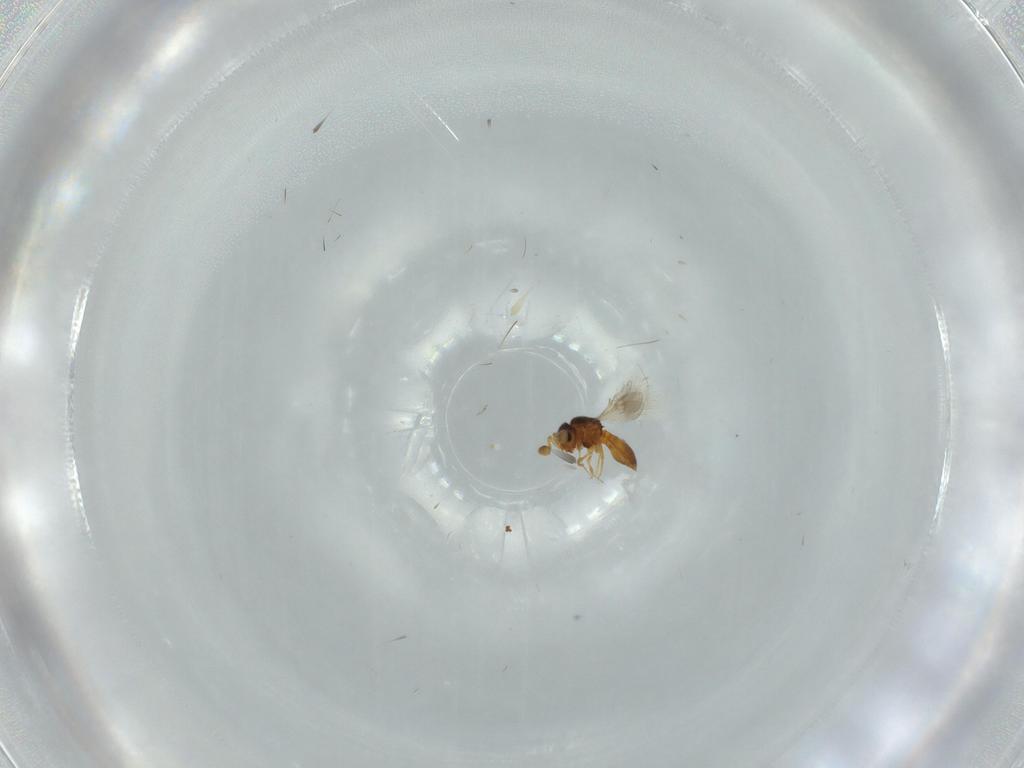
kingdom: Animalia
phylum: Arthropoda
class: Insecta
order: Hymenoptera
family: Scelionidae
